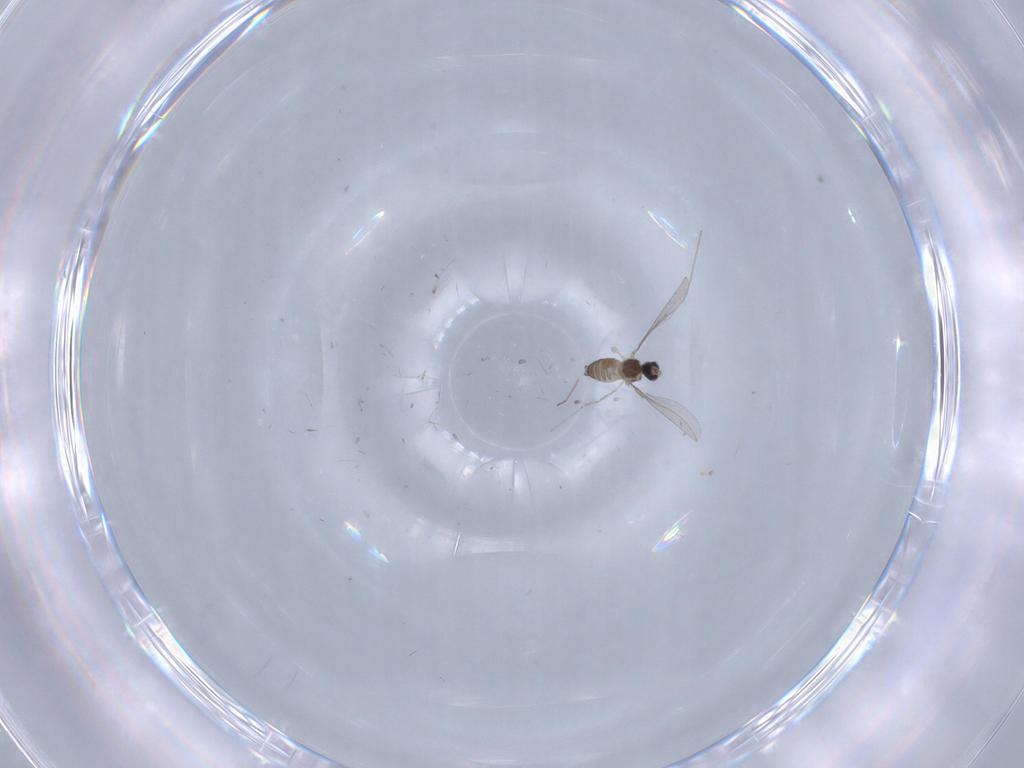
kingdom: Animalia
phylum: Arthropoda
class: Insecta
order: Diptera
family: Cecidomyiidae
